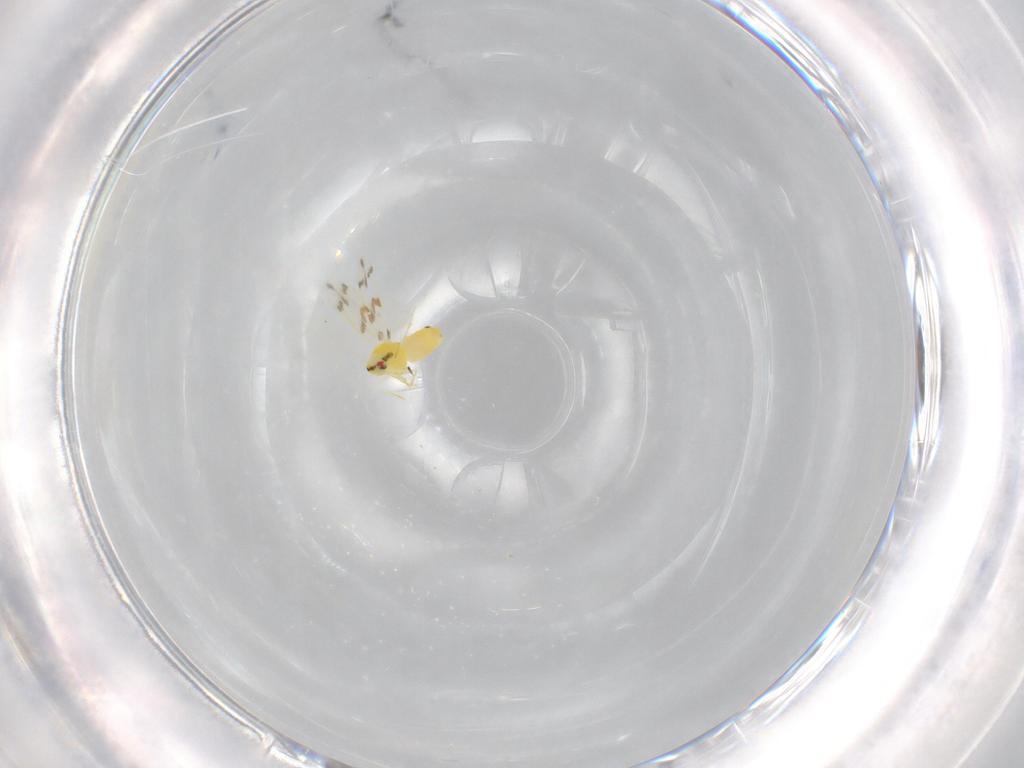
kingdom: Animalia
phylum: Arthropoda
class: Insecta
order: Hemiptera
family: Aleyrodidae
